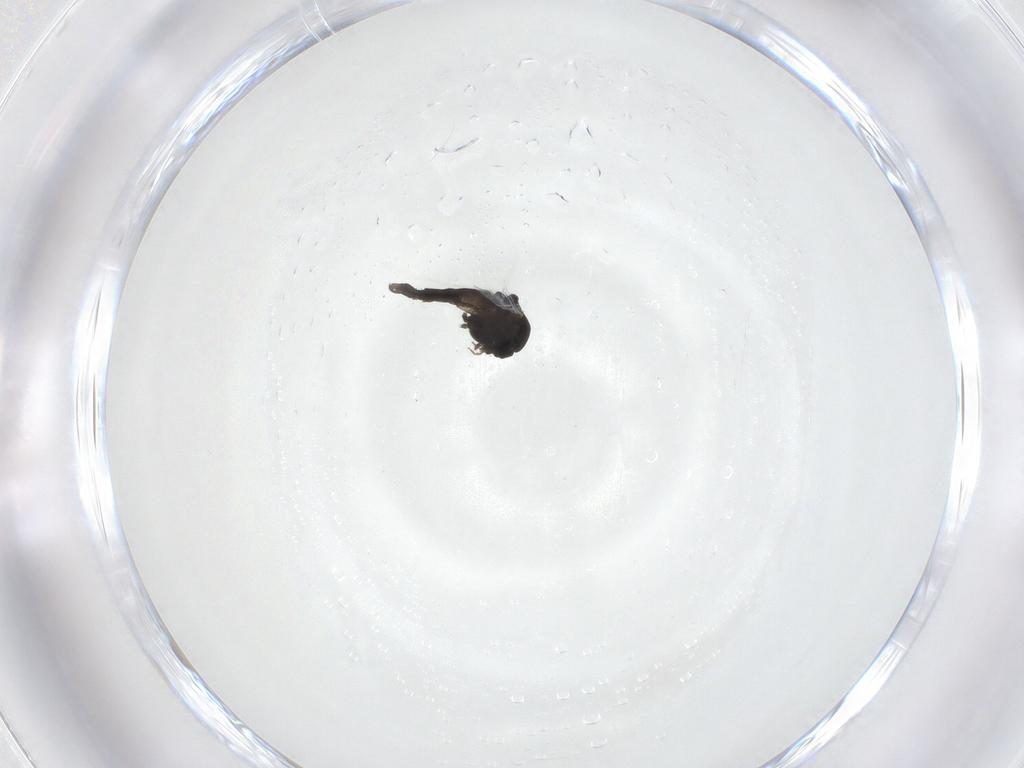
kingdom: Animalia
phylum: Arthropoda
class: Insecta
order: Diptera
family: Chironomidae
